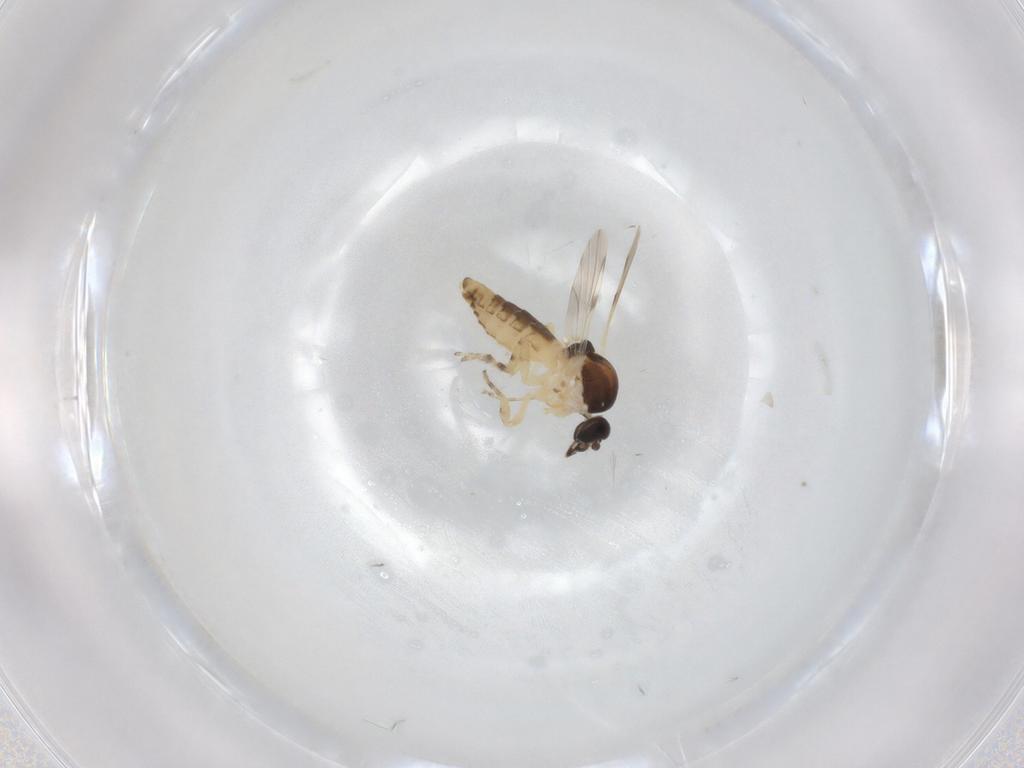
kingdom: Animalia
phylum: Arthropoda
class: Insecta
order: Diptera
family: Ceratopogonidae
